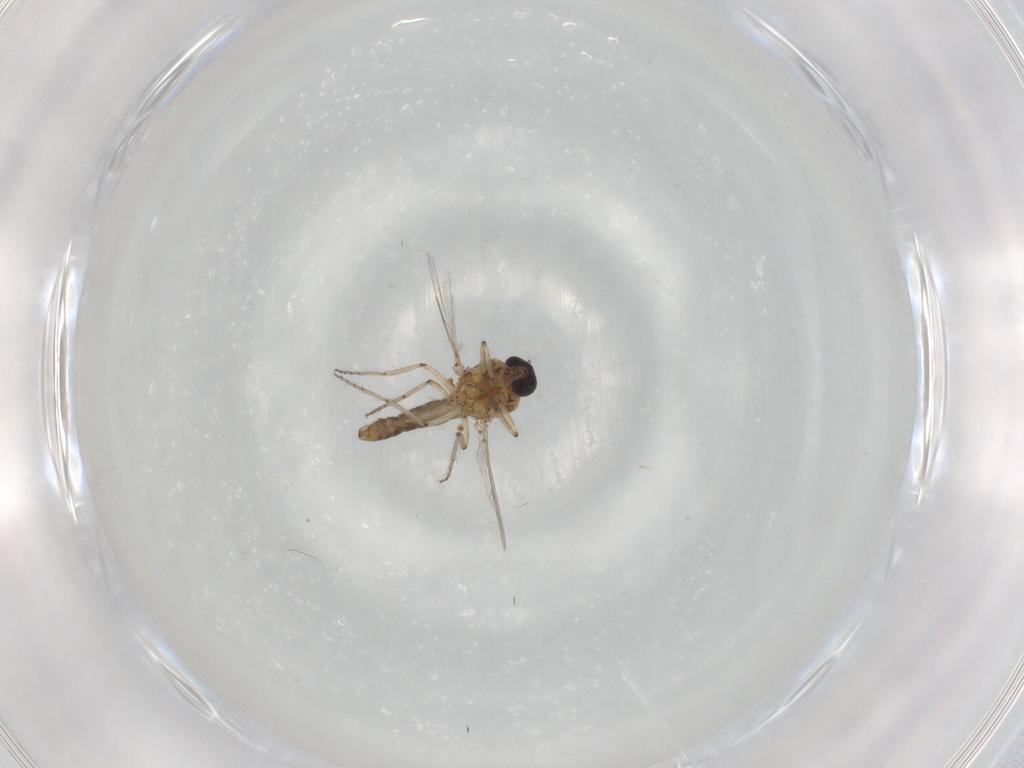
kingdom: Animalia
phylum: Arthropoda
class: Insecta
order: Diptera
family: Ceratopogonidae
